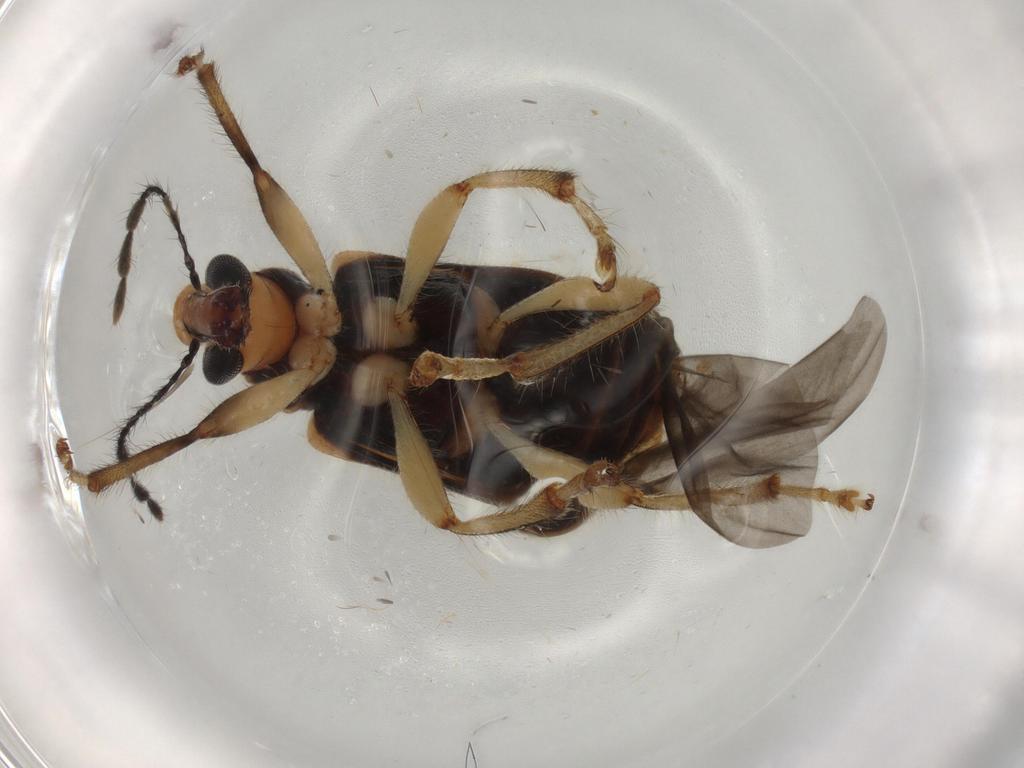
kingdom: Animalia
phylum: Arthropoda
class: Insecta
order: Coleoptera
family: Attelabidae
